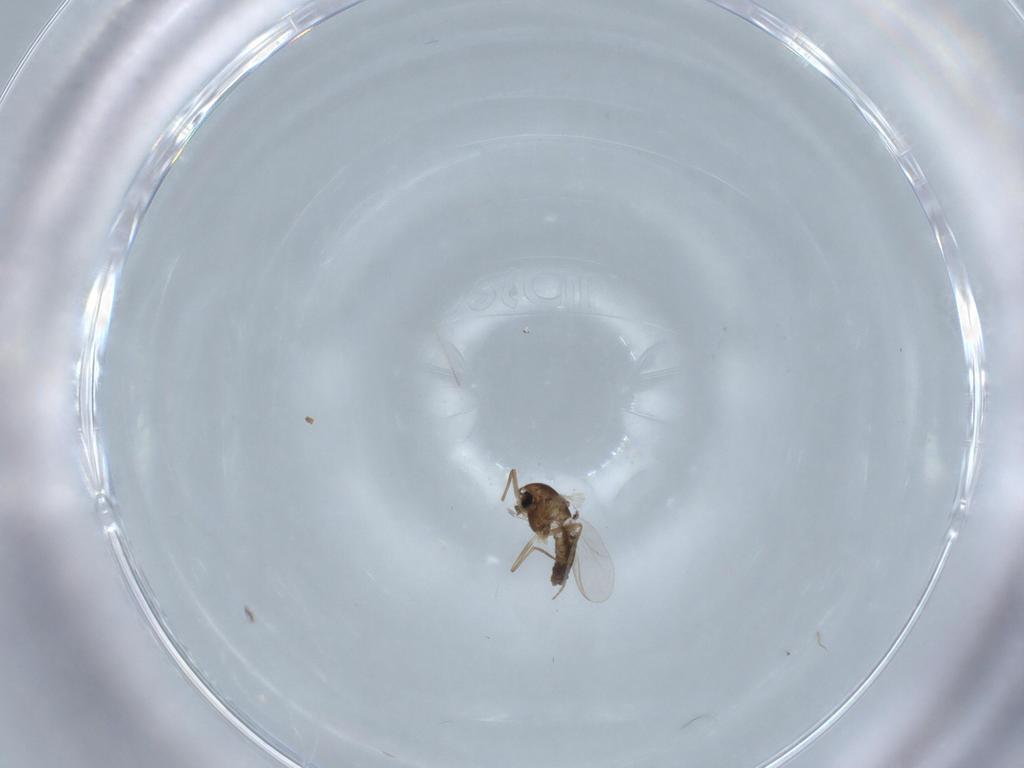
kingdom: Animalia
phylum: Arthropoda
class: Insecta
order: Diptera
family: Chironomidae
